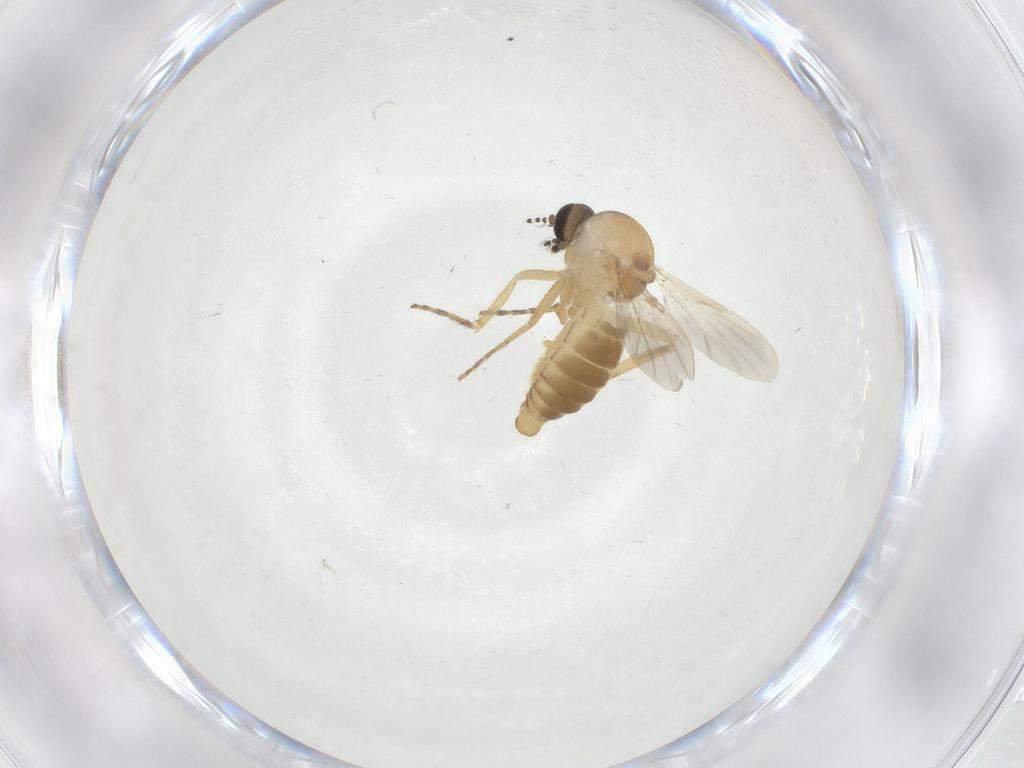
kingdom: Animalia
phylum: Arthropoda
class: Insecta
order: Diptera
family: Ceratopogonidae
